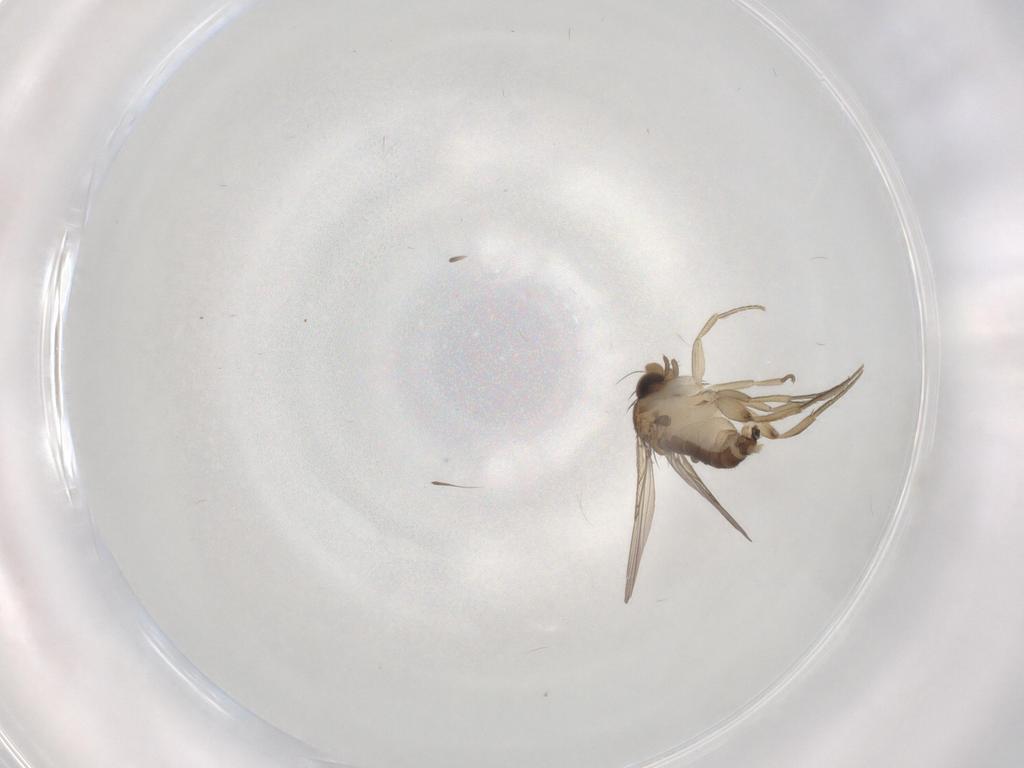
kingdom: Animalia
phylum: Arthropoda
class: Insecta
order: Diptera
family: Phoridae
